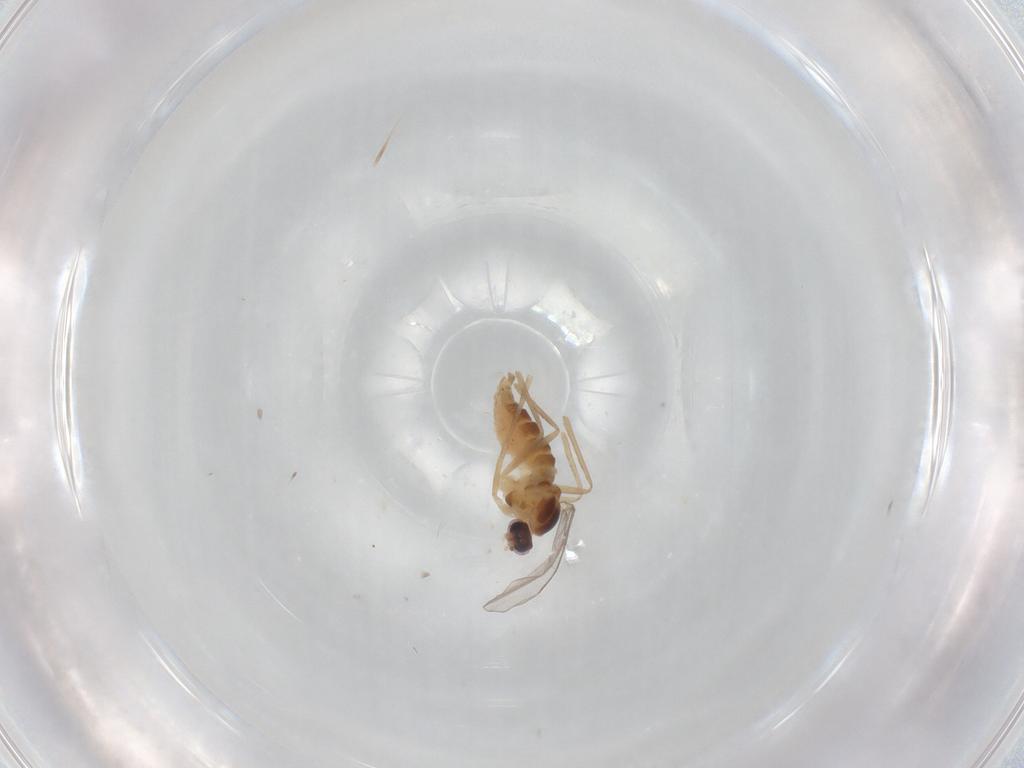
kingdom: Animalia
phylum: Arthropoda
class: Insecta
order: Diptera
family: Cecidomyiidae
